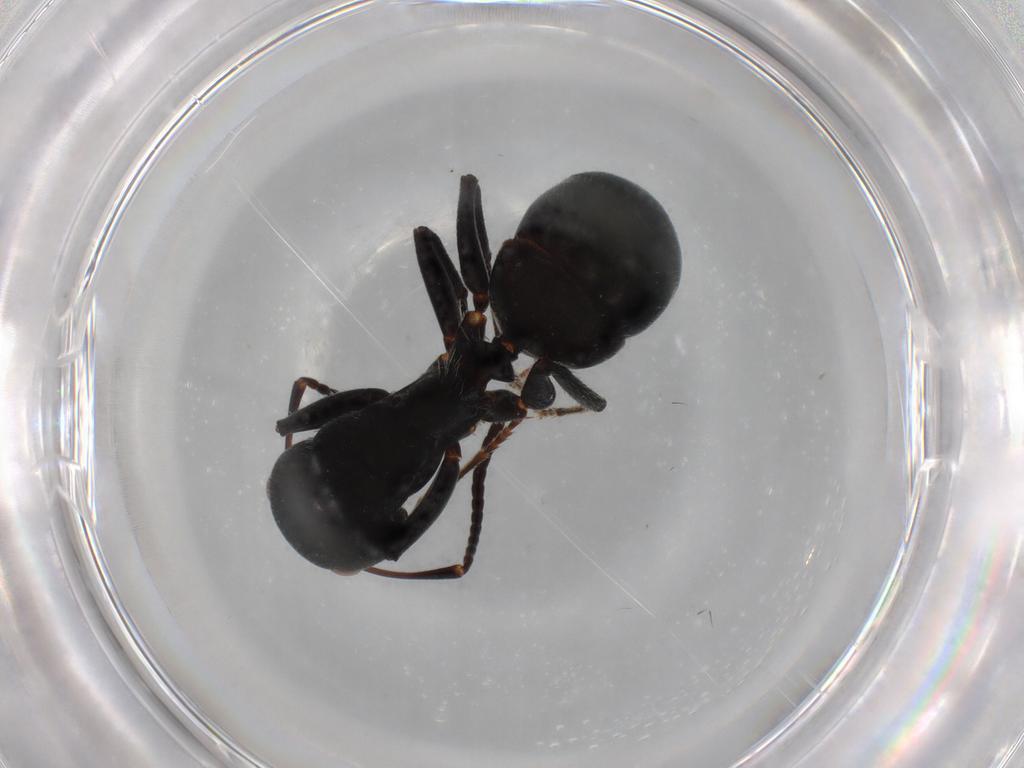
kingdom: Animalia
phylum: Arthropoda
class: Insecta
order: Hymenoptera
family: Formicidae
